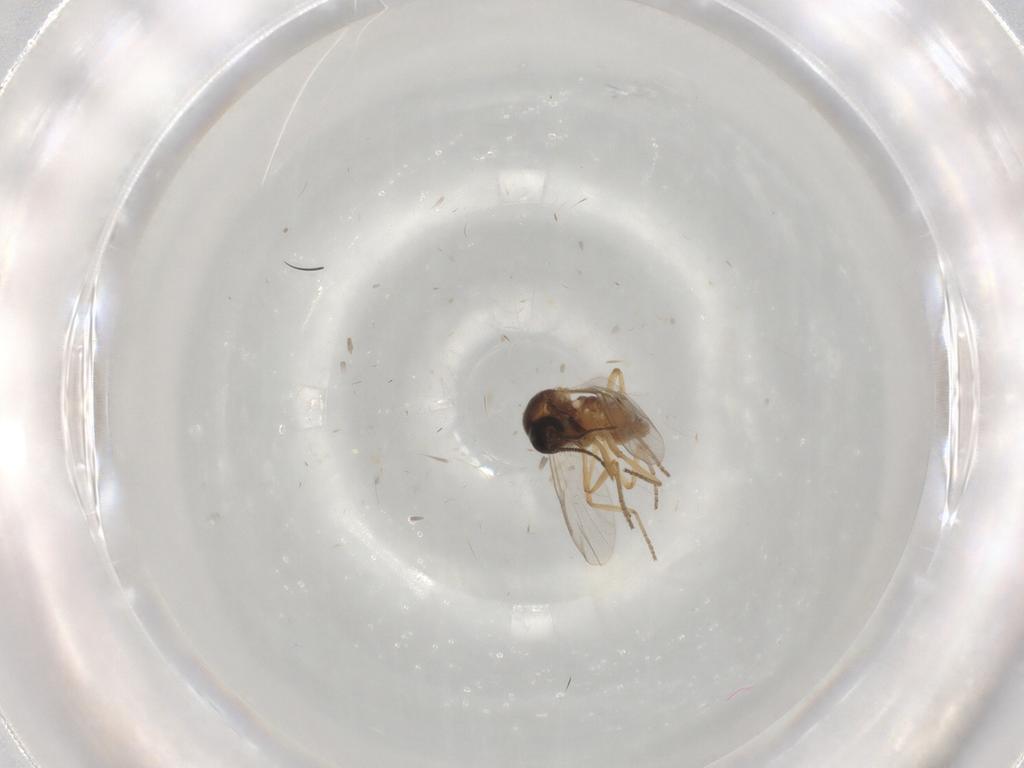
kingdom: Animalia
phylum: Arthropoda
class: Insecta
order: Diptera
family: Ceratopogonidae
